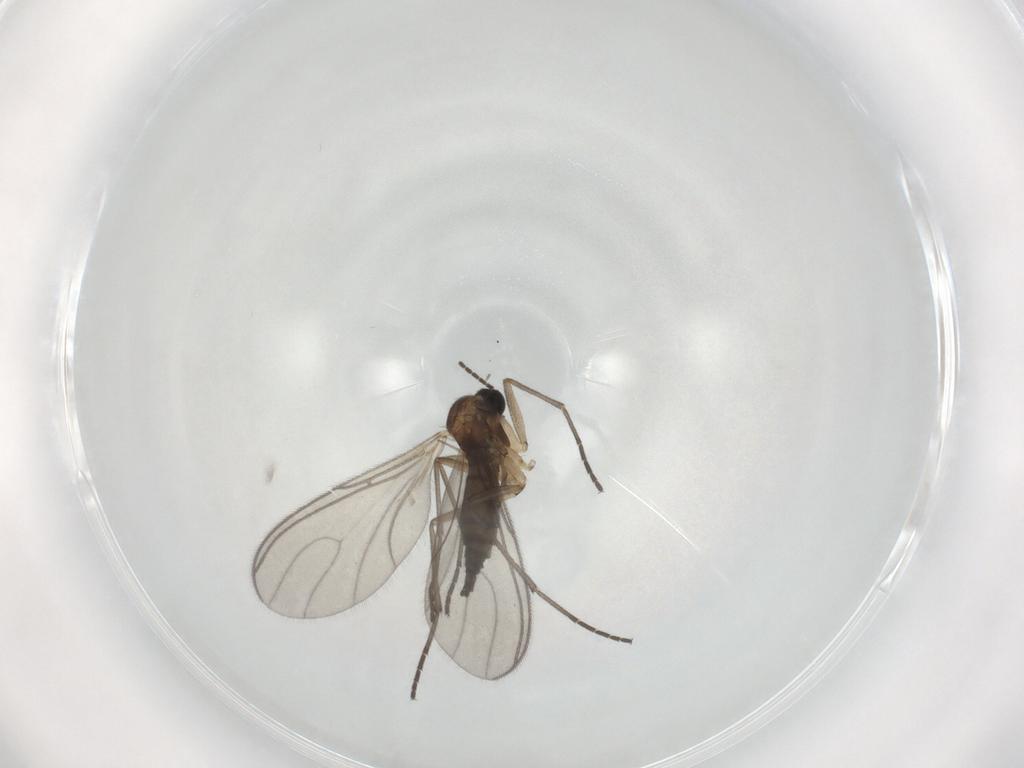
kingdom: Animalia
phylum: Arthropoda
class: Insecta
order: Diptera
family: Sciaridae
